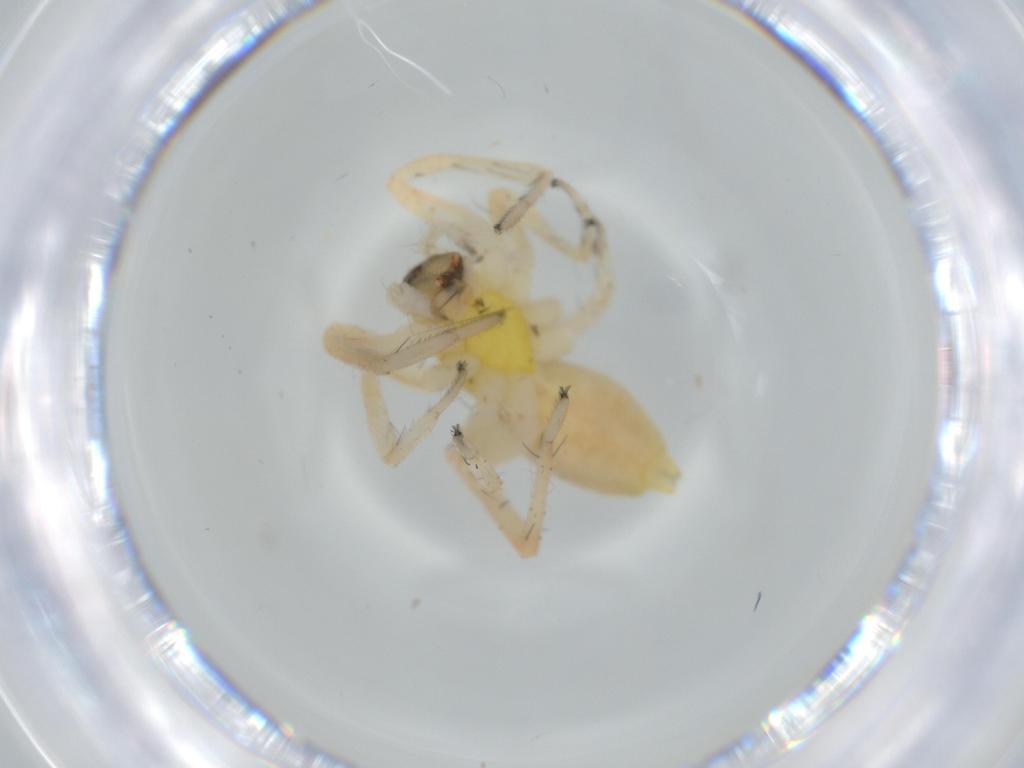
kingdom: Animalia
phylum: Arthropoda
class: Arachnida
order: Araneae
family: Anyphaenidae
